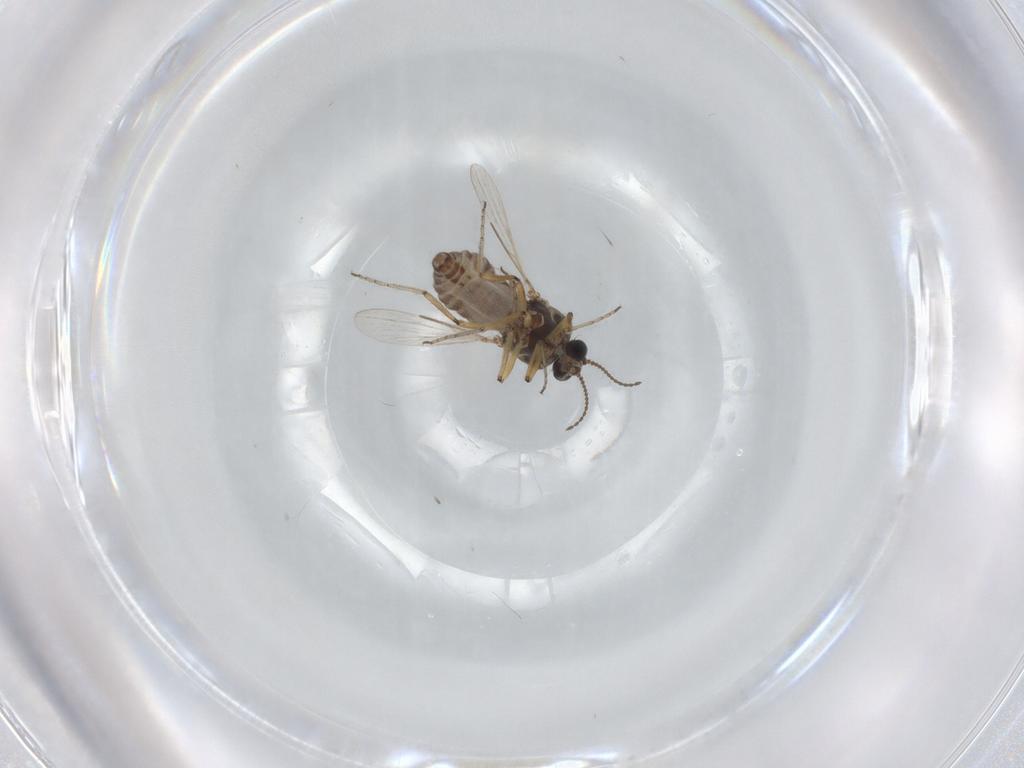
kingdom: Animalia
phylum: Arthropoda
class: Insecta
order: Diptera
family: Ceratopogonidae
